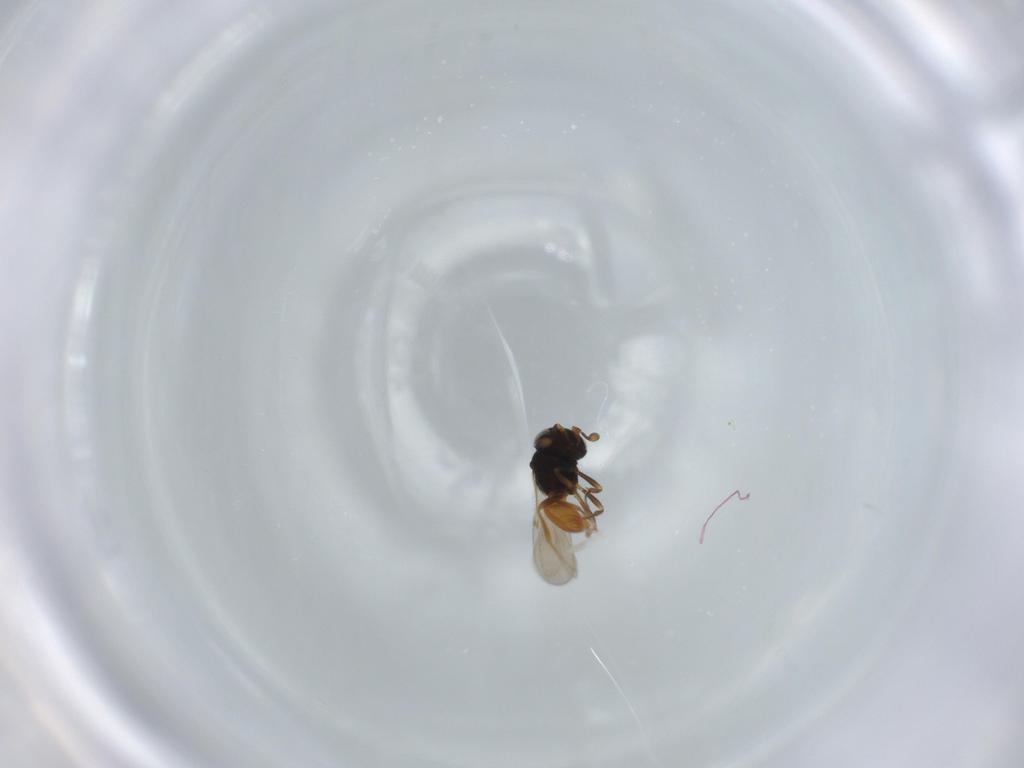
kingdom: Animalia
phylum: Arthropoda
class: Insecta
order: Hymenoptera
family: Scelionidae
